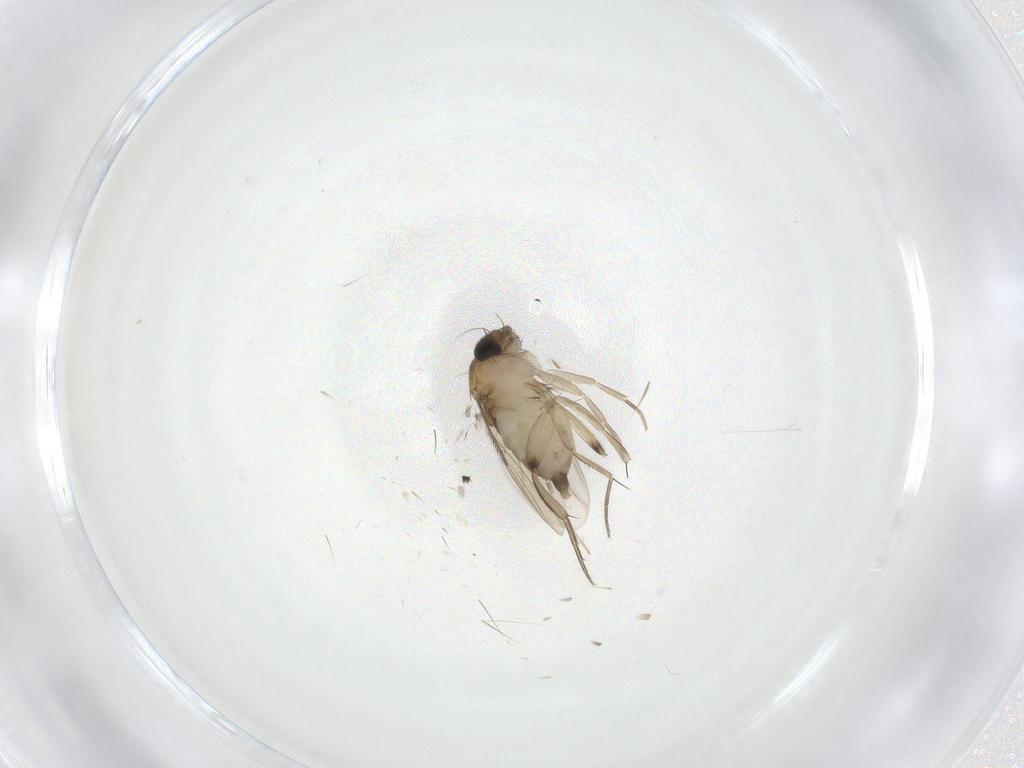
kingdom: Animalia
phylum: Arthropoda
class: Insecta
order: Diptera
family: Phoridae
